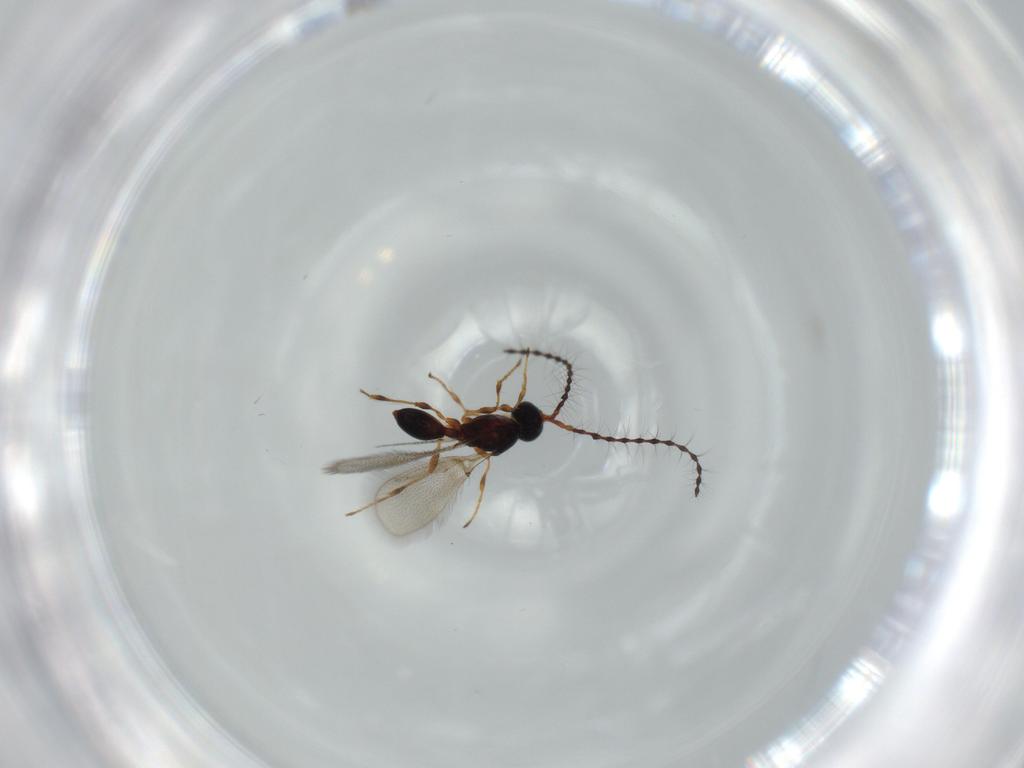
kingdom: Animalia
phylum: Arthropoda
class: Insecta
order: Hymenoptera
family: Diapriidae
